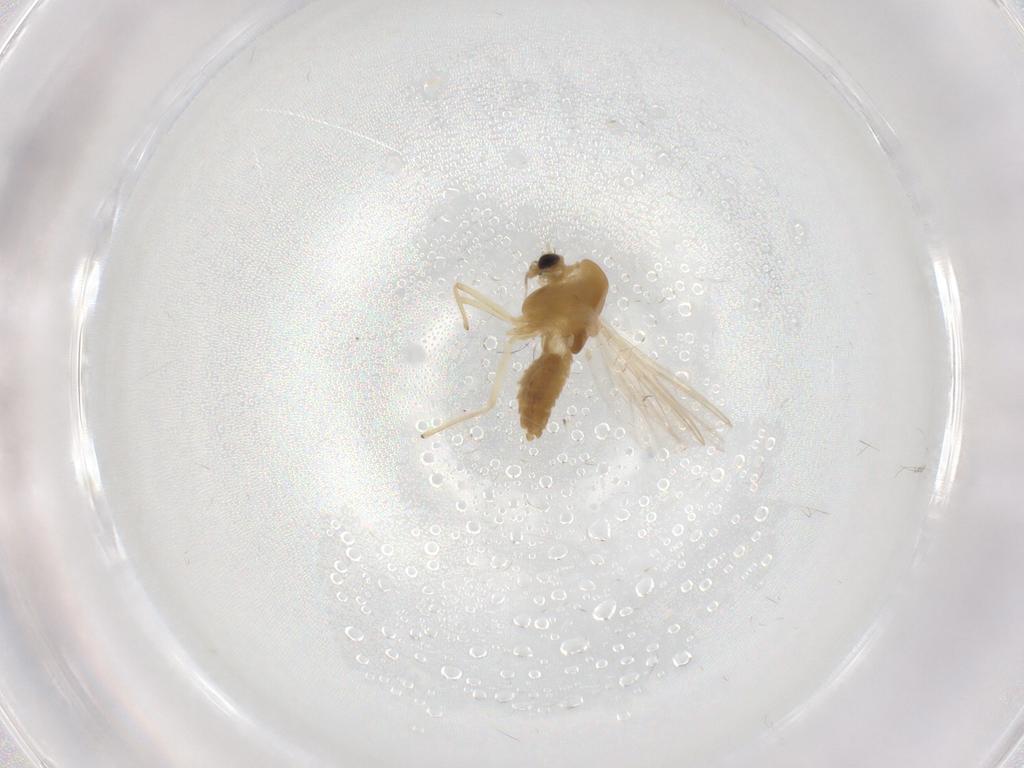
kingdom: Animalia
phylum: Arthropoda
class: Insecta
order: Diptera
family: Chironomidae
